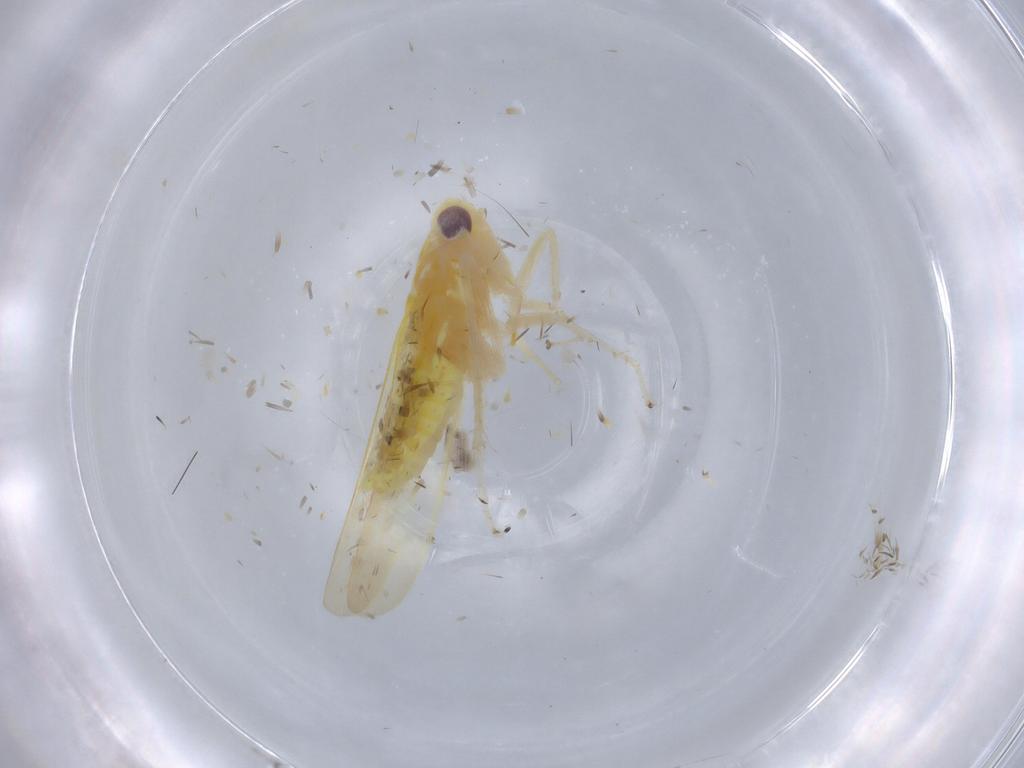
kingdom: Animalia
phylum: Arthropoda
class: Insecta
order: Hemiptera
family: Cicadellidae
